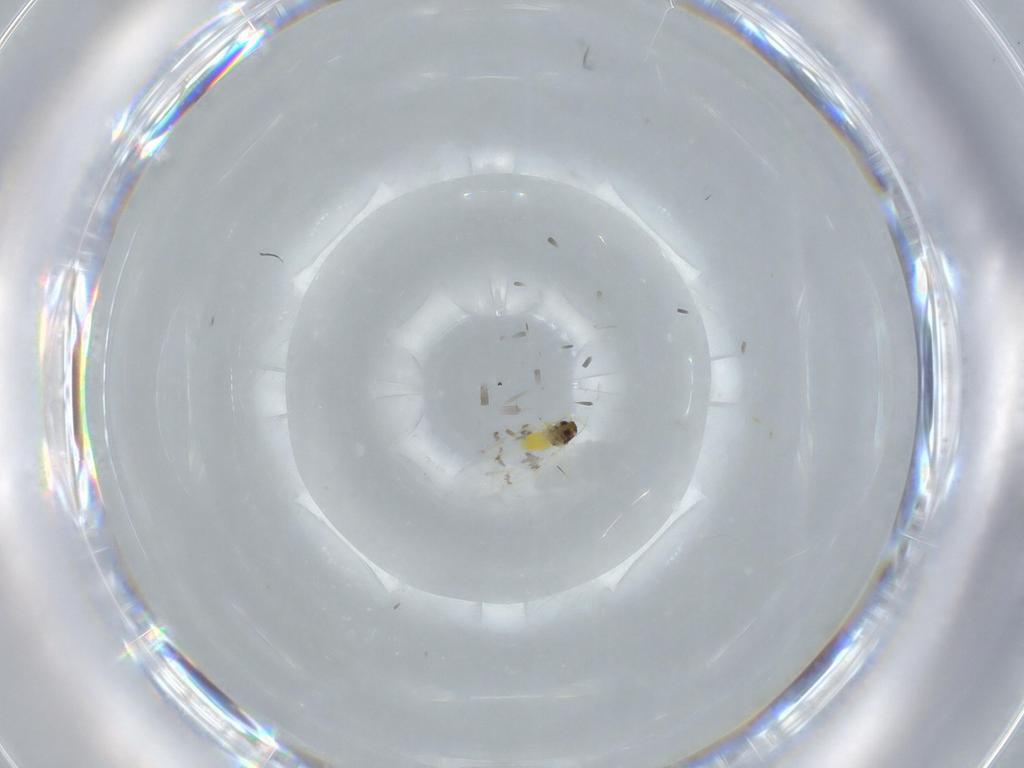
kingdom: Animalia
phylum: Arthropoda
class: Insecta
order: Hemiptera
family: Aleyrodidae
